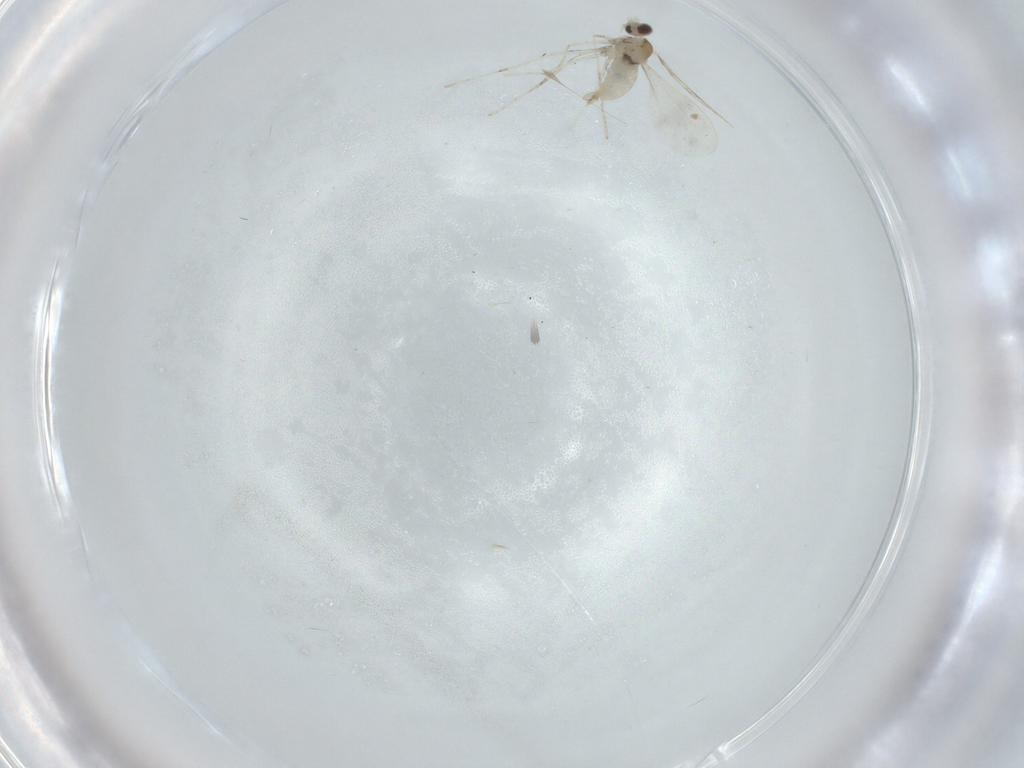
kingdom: Animalia
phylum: Arthropoda
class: Insecta
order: Diptera
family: Cecidomyiidae
